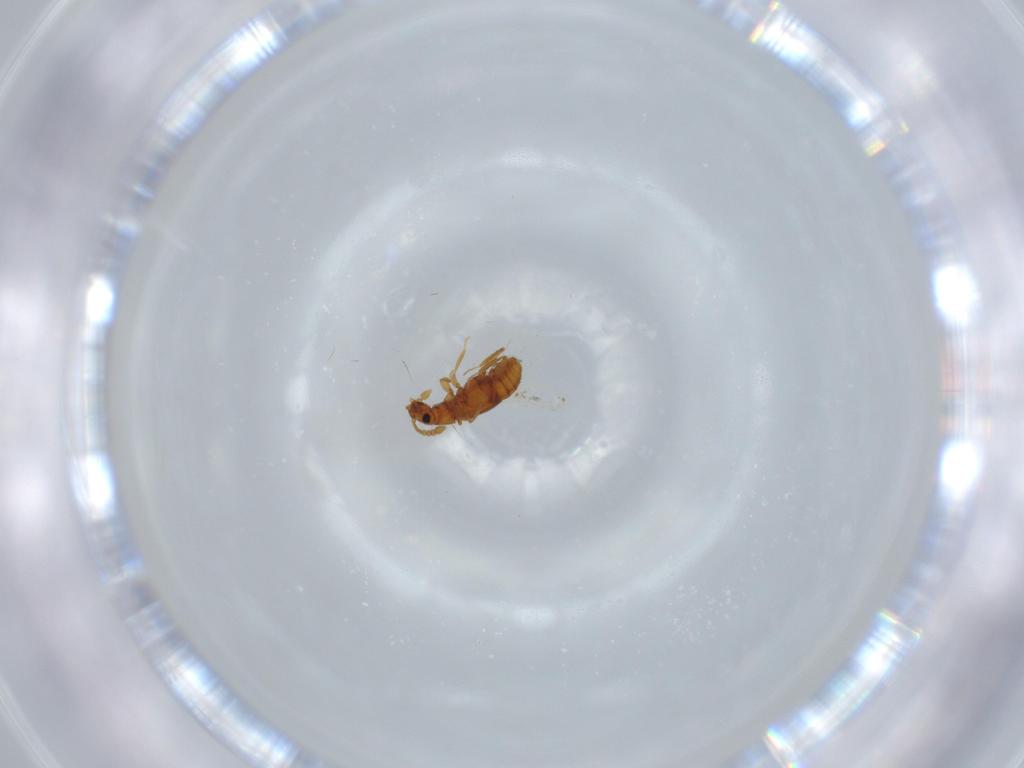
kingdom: Animalia
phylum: Arthropoda
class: Insecta
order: Coleoptera
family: Staphylinidae
